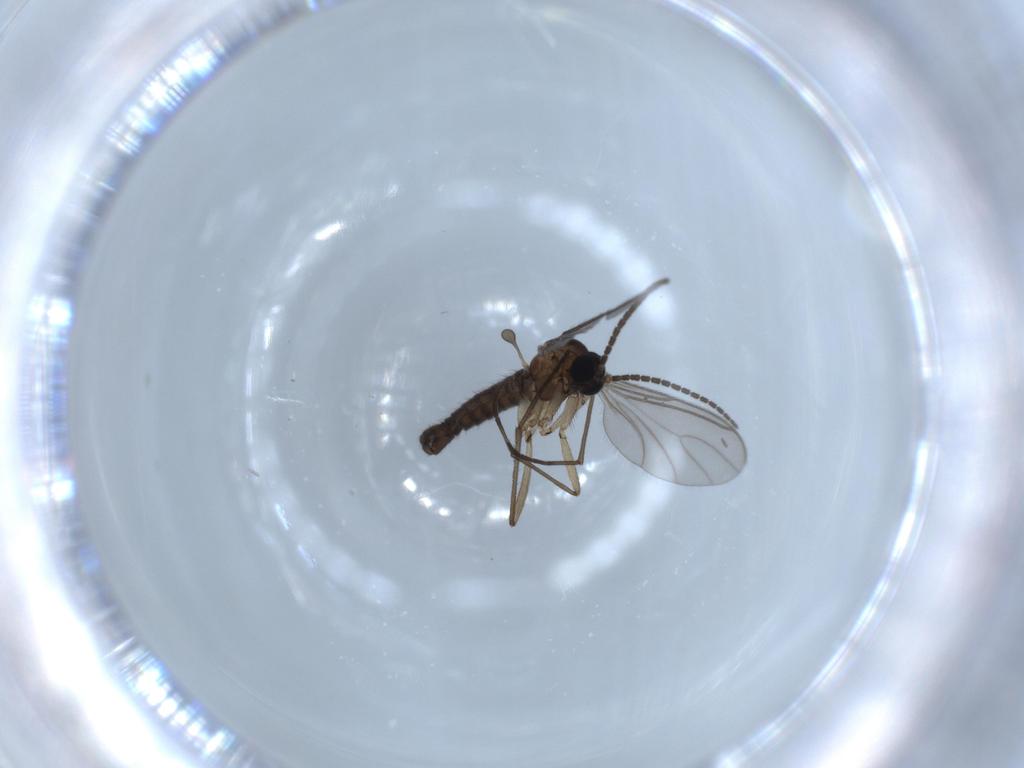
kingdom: Animalia
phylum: Arthropoda
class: Insecta
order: Diptera
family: Sciaridae
